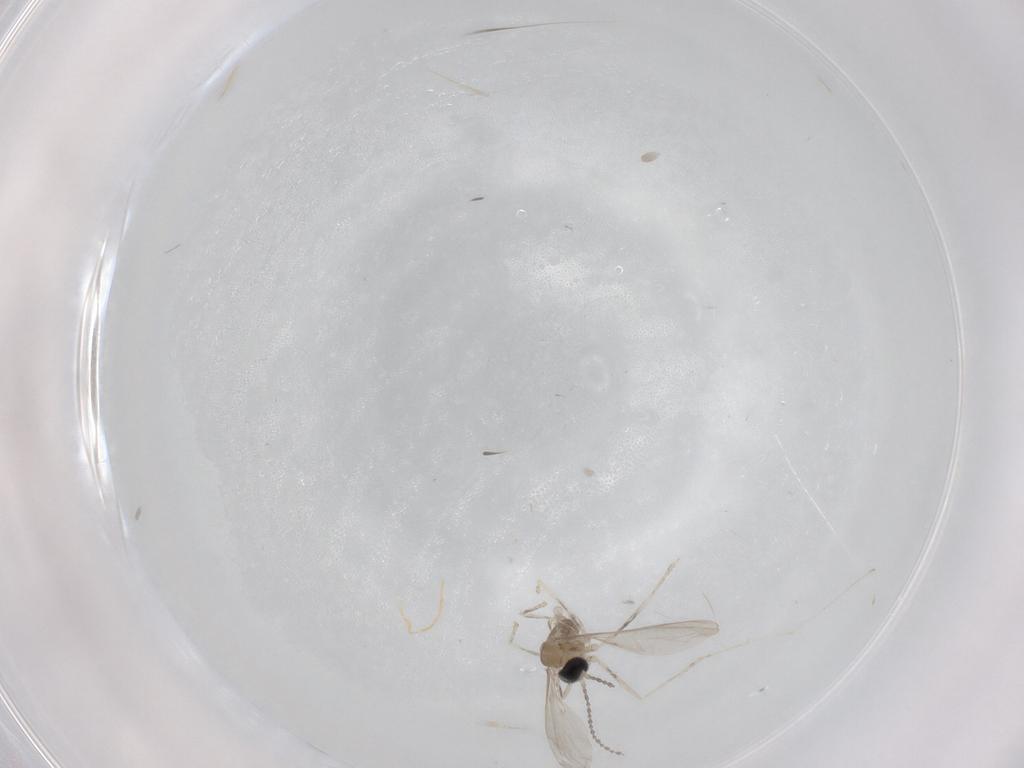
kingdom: Animalia
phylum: Arthropoda
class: Insecta
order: Diptera
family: Cecidomyiidae
